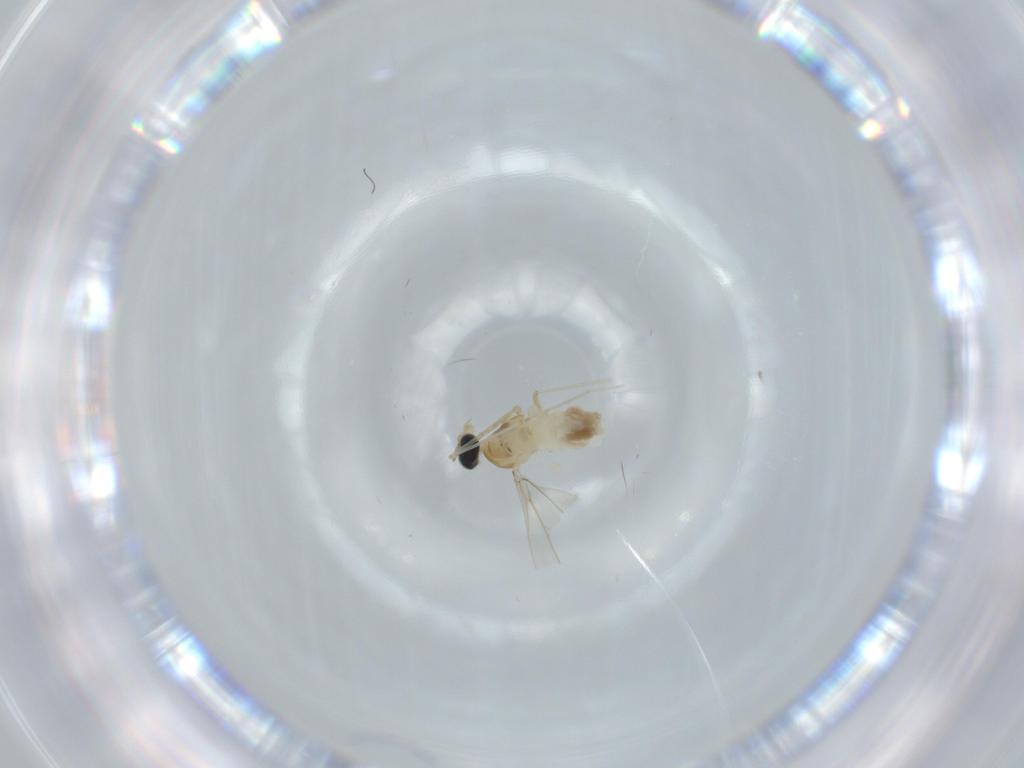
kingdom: Animalia
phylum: Arthropoda
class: Insecta
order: Diptera
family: Cecidomyiidae
